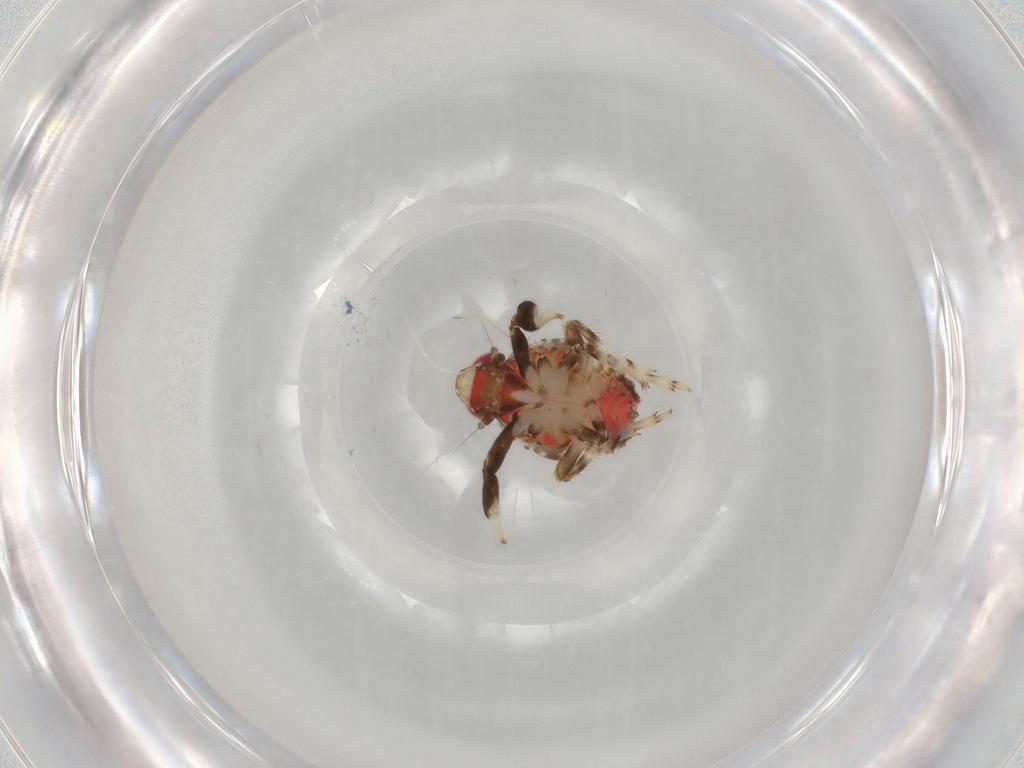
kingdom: Animalia
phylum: Arthropoda
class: Insecta
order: Hemiptera
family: Issidae
